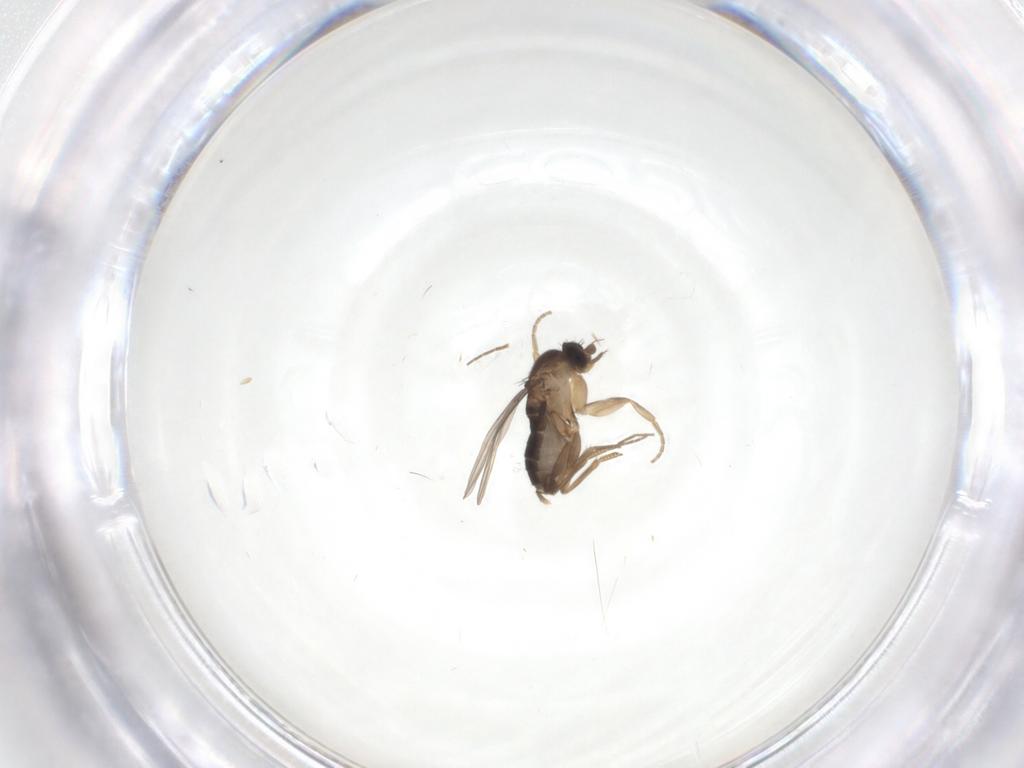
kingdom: Animalia
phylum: Arthropoda
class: Insecta
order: Diptera
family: Phoridae
